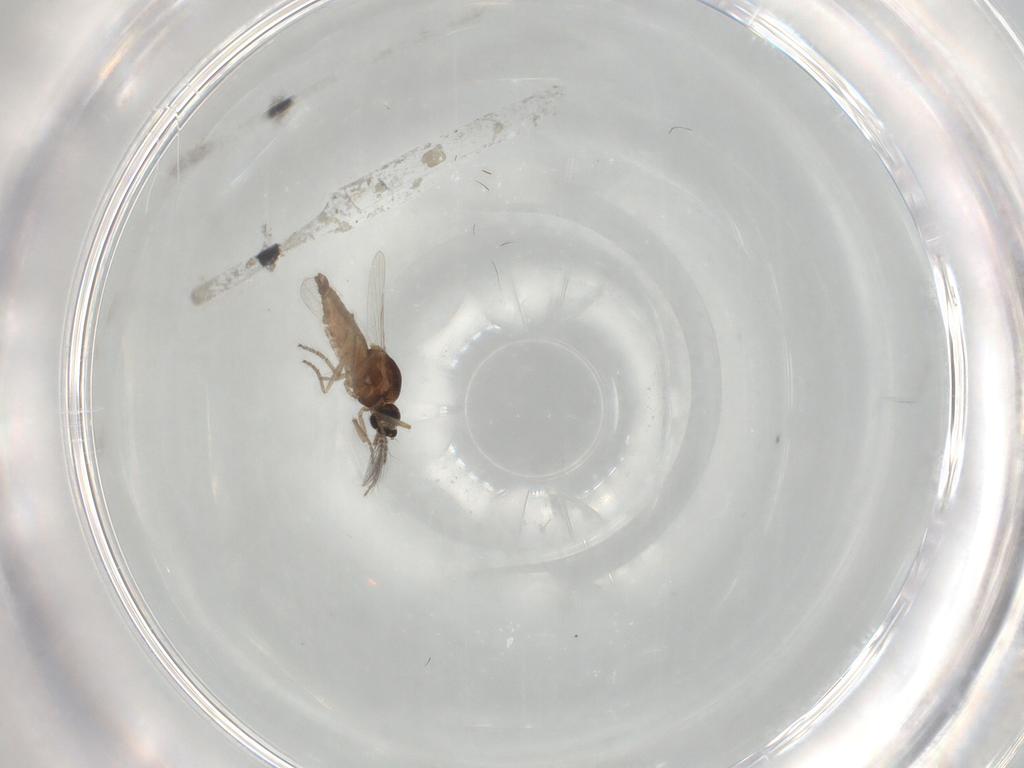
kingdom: Animalia
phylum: Arthropoda
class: Insecta
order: Diptera
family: Ceratopogonidae
